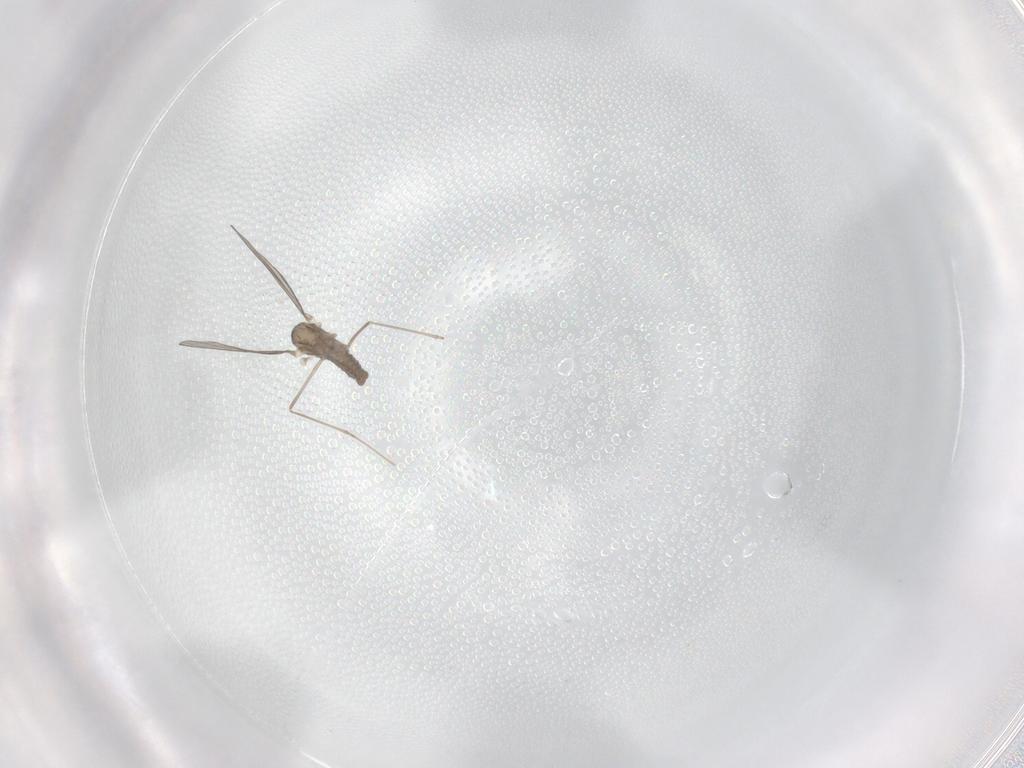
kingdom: Animalia
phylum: Arthropoda
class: Insecta
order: Diptera
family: Cecidomyiidae
